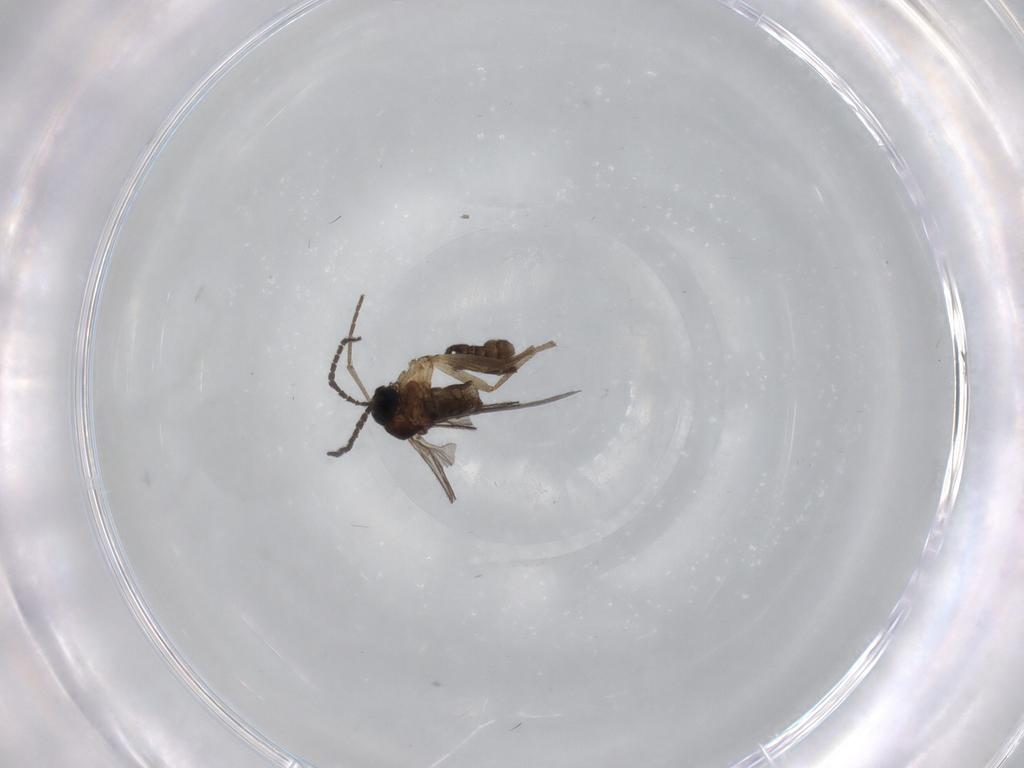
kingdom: Animalia
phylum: Arthropoda
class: Insecta
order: Diptera
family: Sciaridae
